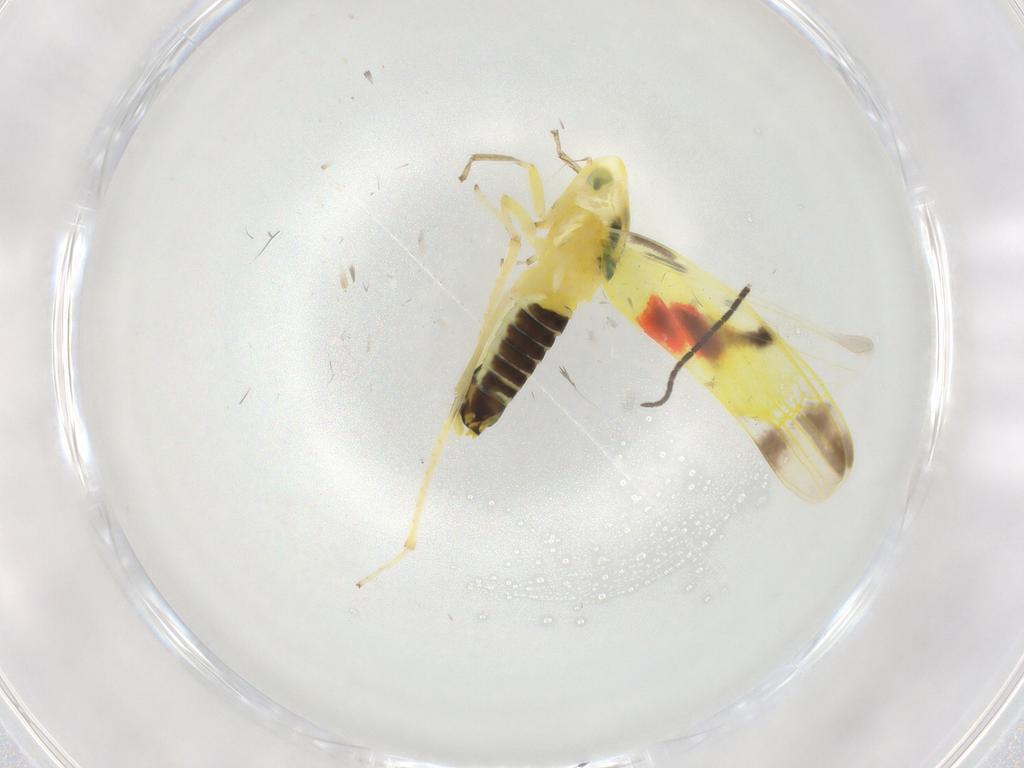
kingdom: Animalia
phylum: Arthropoda
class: Insecta
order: Hemiptera
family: Cicadellidae
